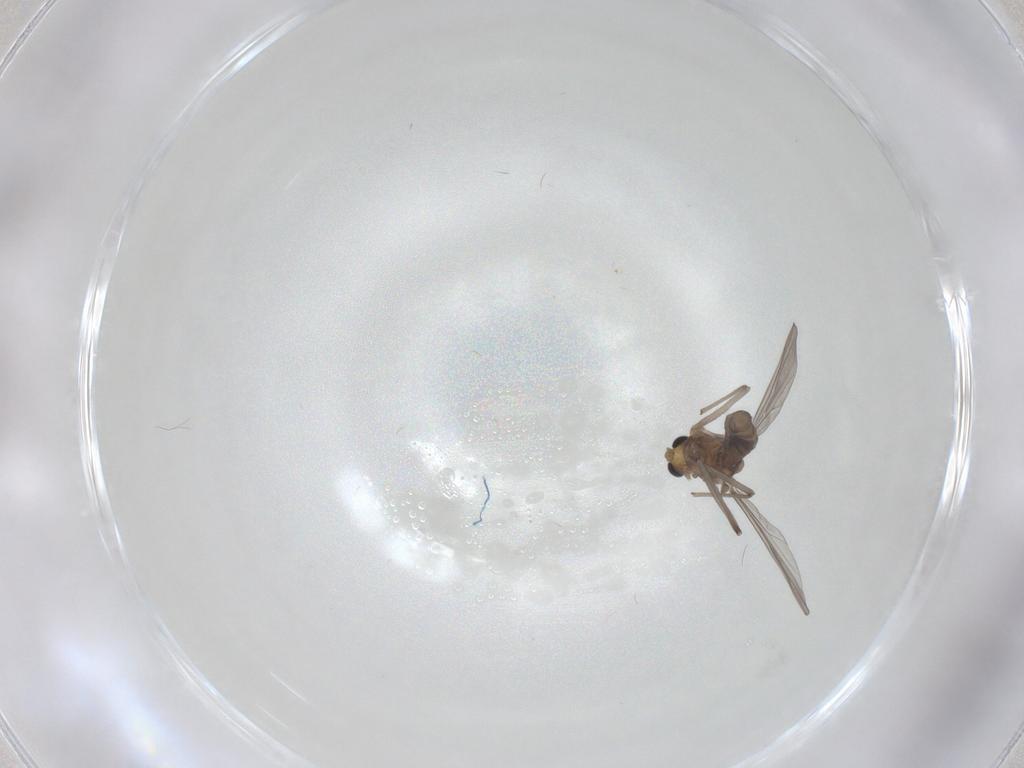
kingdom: Animalia
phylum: Arthropoda
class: Insecta
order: Diptera
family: Chironomidae
